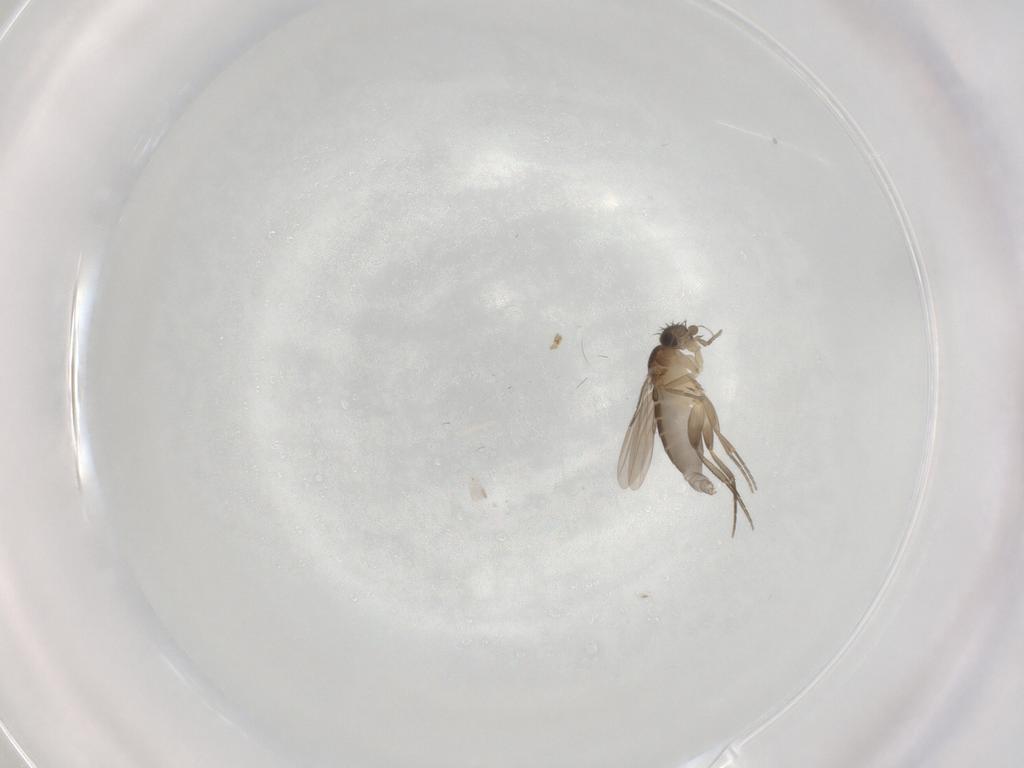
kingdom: Animalia
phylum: Arthropoda
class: Insecta
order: Diptera
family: Phoridae
